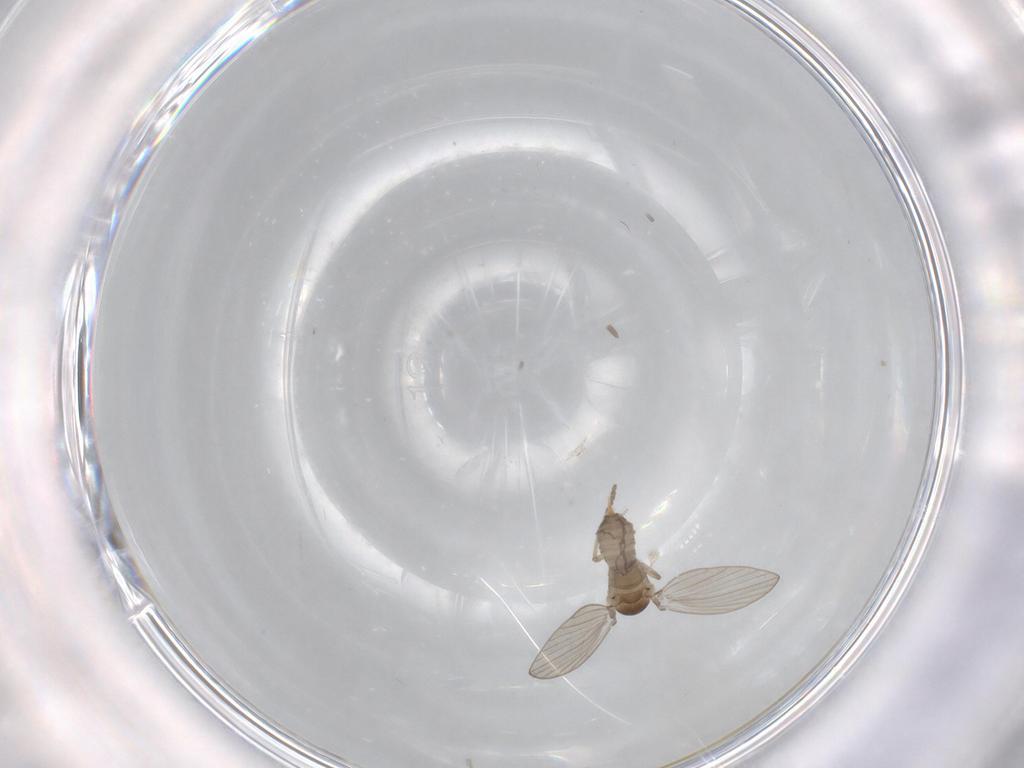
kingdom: Animalia
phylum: Arthropoda
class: Insecta
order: Diptera
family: Psychodidae
